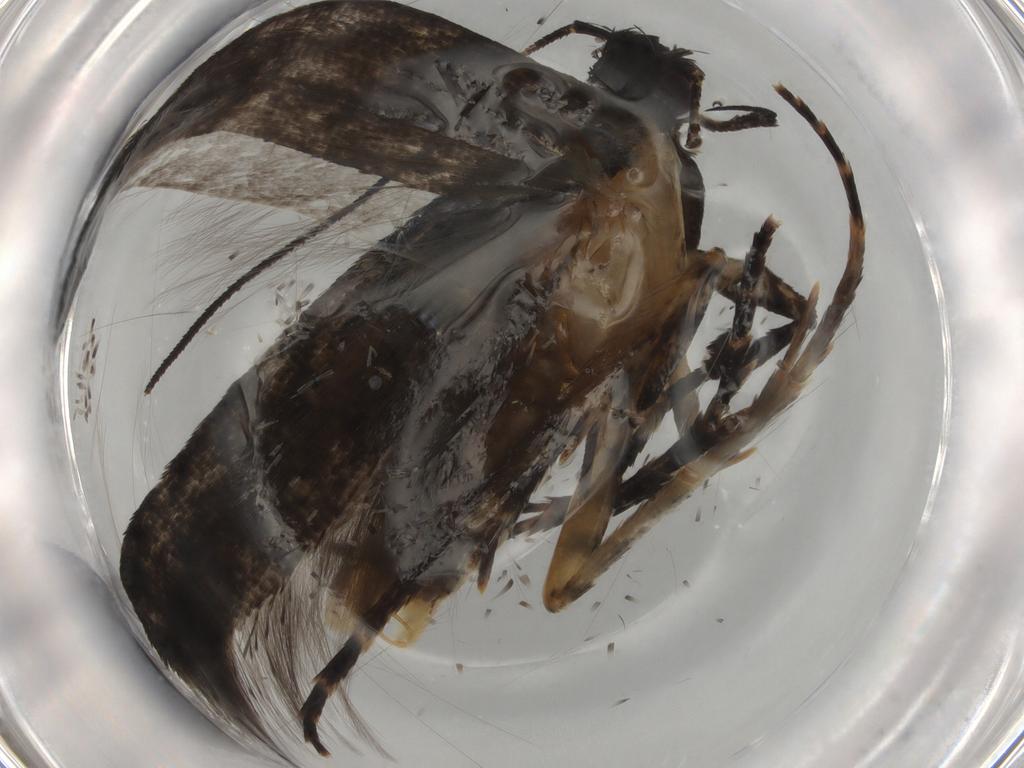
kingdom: Animalia
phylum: Arthropoda
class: Insecta
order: Lepidoptera
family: Gelechiidae
